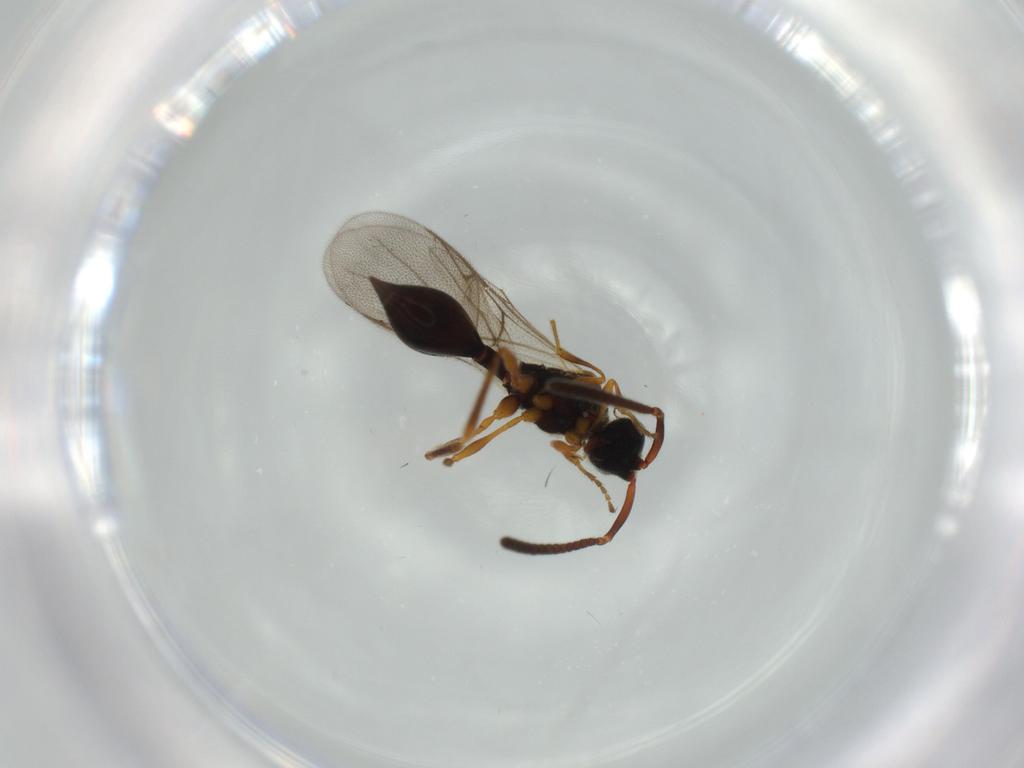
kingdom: Animalia
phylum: Arthropoda
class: Insecta
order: Hymenoptera
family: Diapriidae
